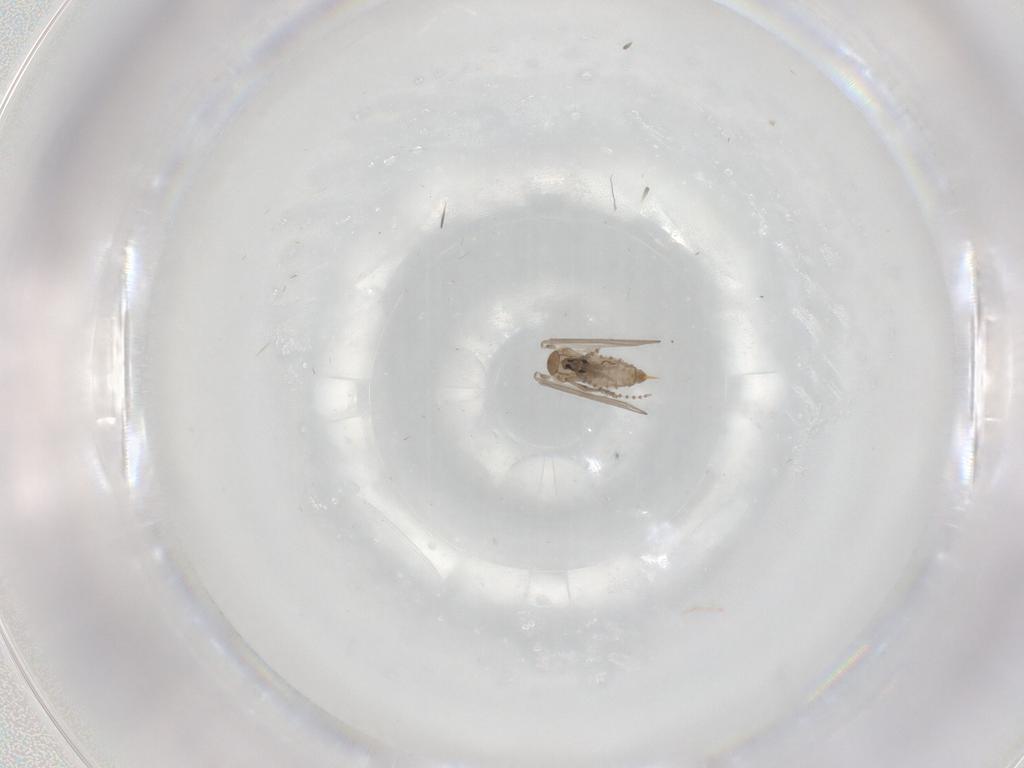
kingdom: Animalia
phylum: Arthropoda
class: Insecta
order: Diptera
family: Psychodidae
